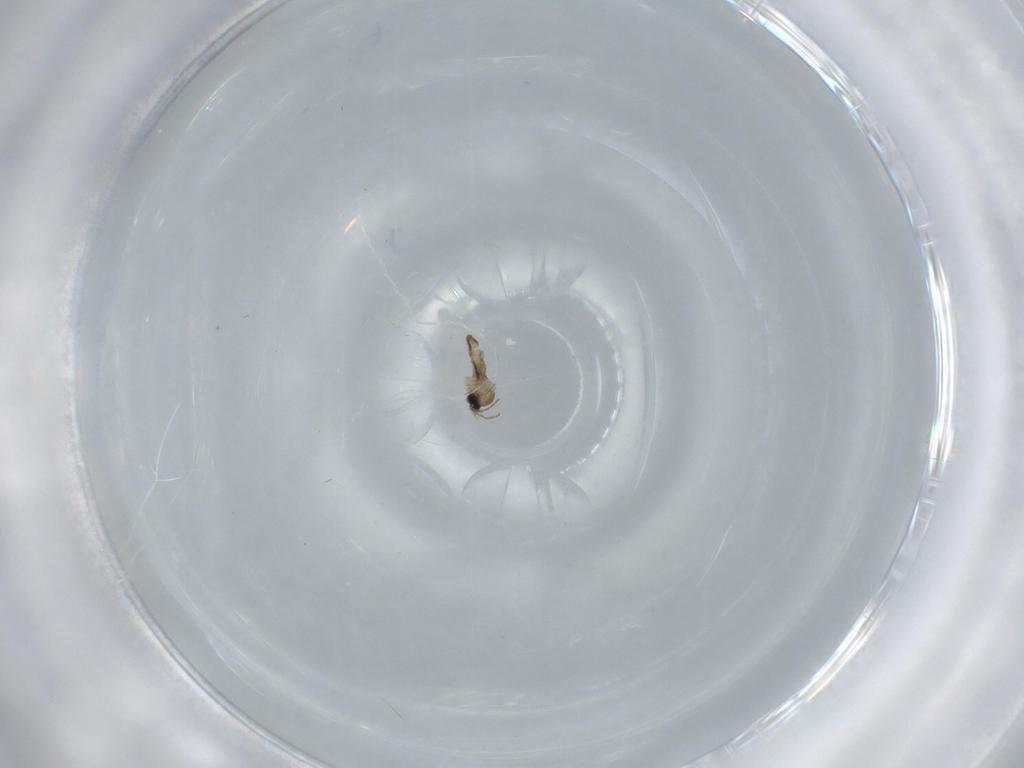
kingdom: Animalia
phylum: Arthropoda
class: Insecta
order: Diptera
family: Cecidomyiidae
